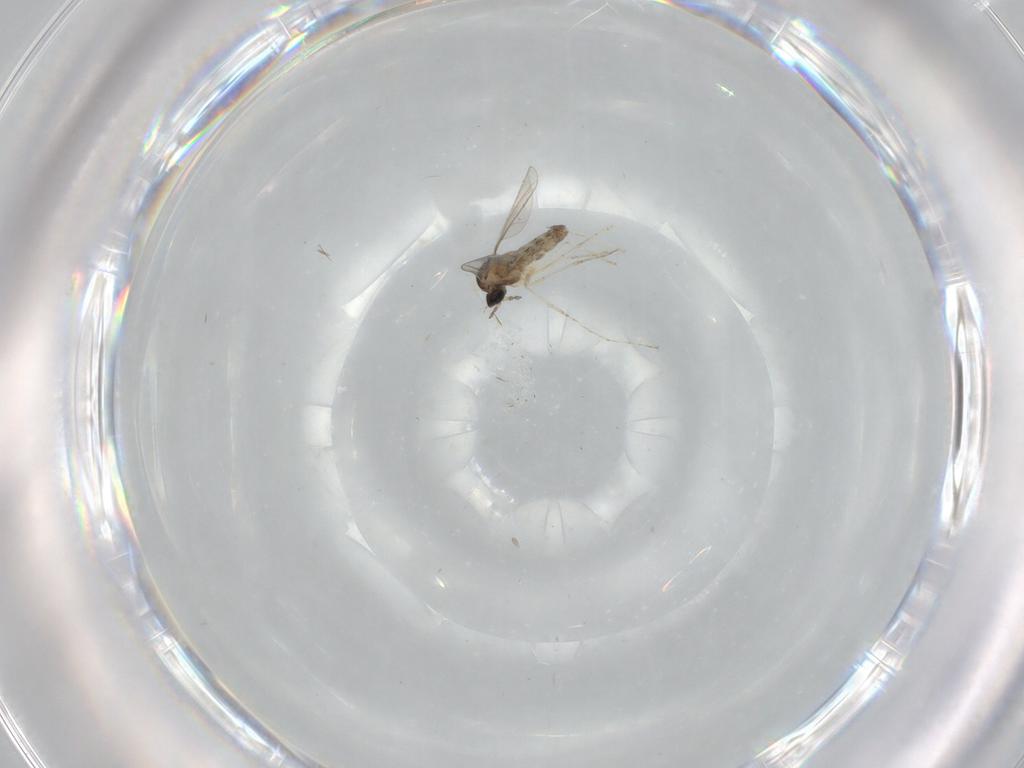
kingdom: Animalia
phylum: Arthropoda
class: Insecta
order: Diptera
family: Cecidomyiidae
